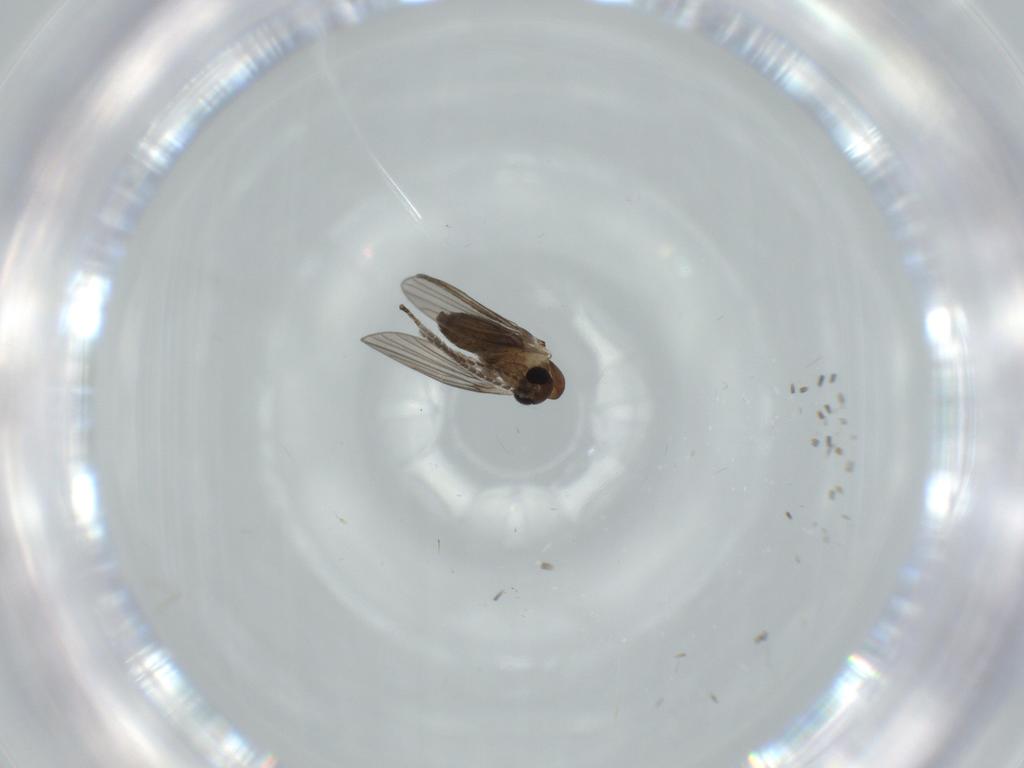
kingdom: Animalia
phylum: Arthropoda
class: Insecta
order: Diptera
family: Psychodidae
